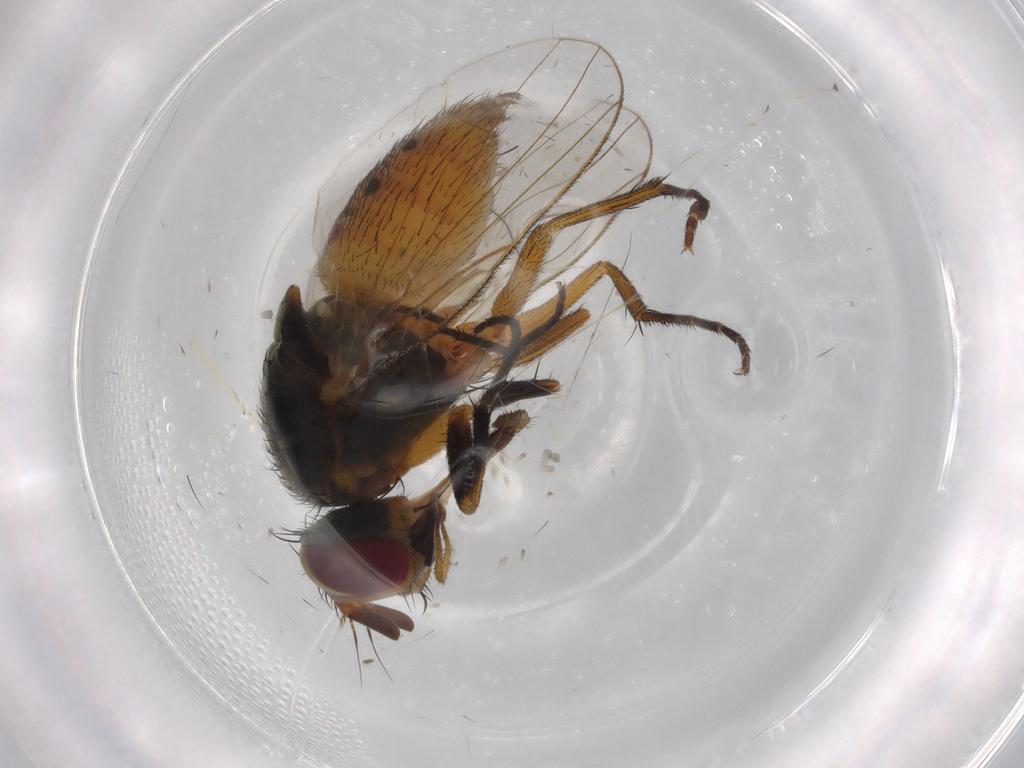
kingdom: Animalia
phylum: Arthropoda
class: Insecta
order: Diptera
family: Muscidae
